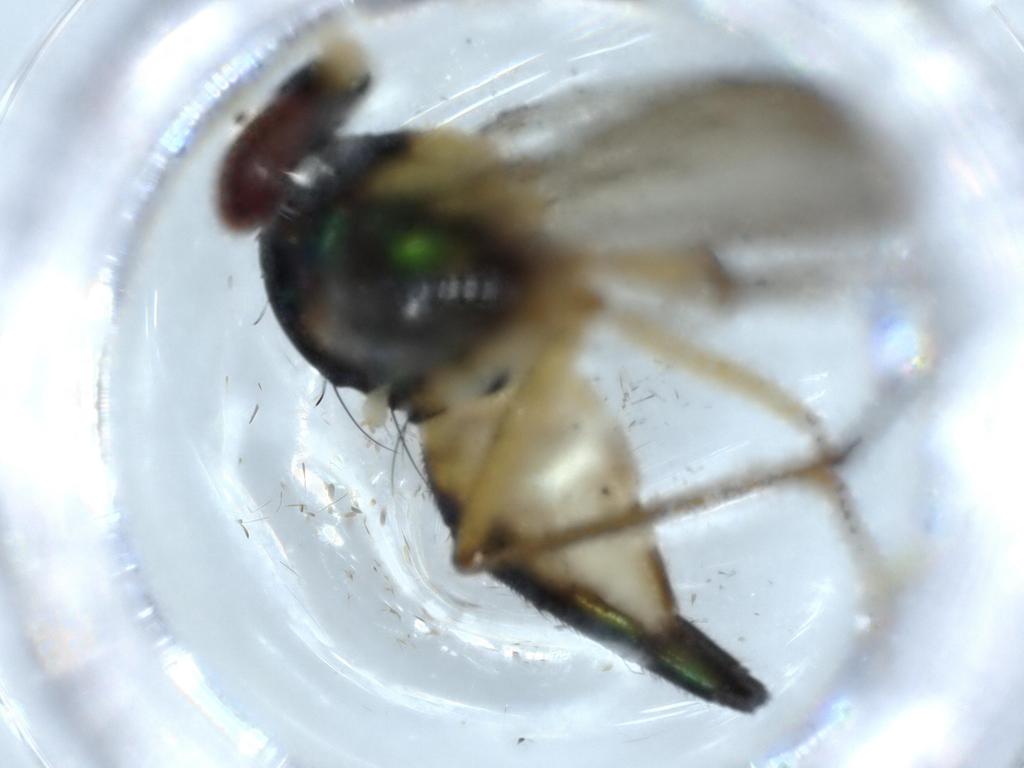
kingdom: Animalia
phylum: Arthropoda
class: Insecta
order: Diptera
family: Dolichopodidae
